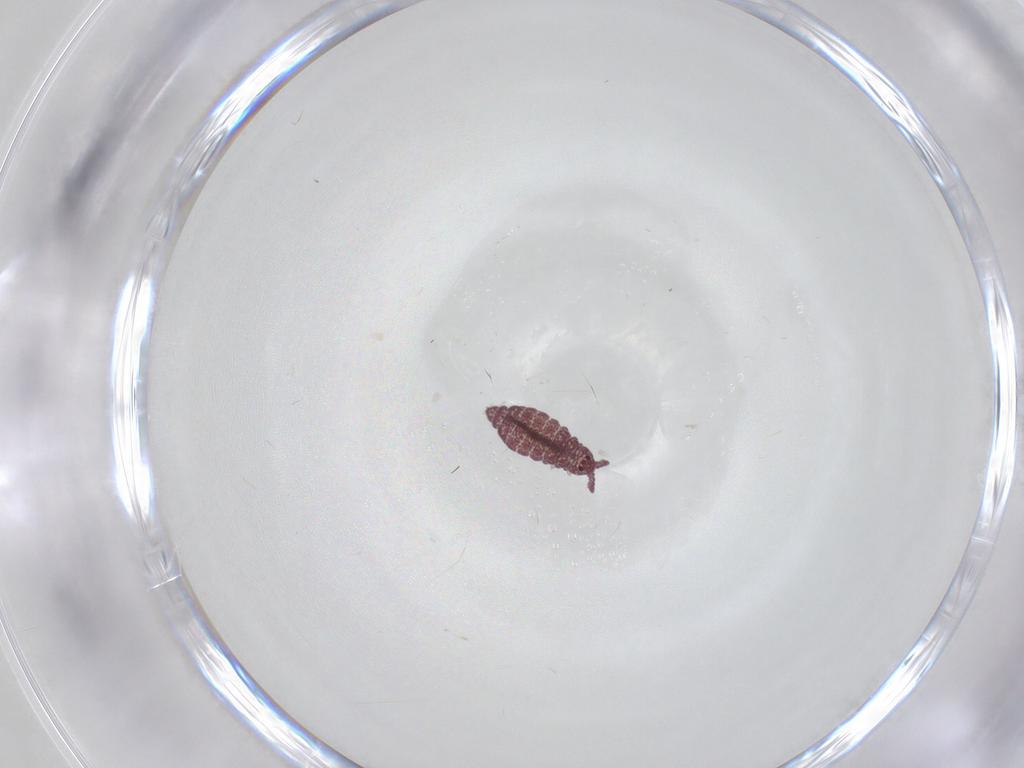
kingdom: Animalia
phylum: Arthropoda
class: Collembola
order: Poduromorpha
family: Hypogastruridae
